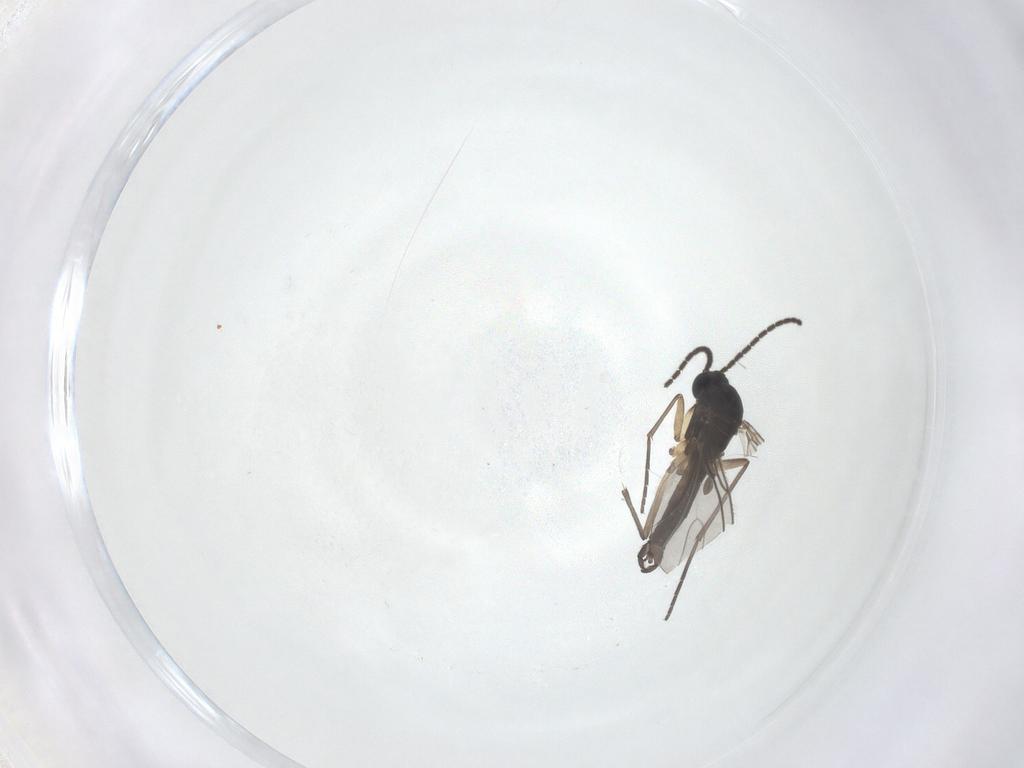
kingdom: Animalia
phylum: Arthropoda
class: Insecta
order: Diptera
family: Sciaridae
